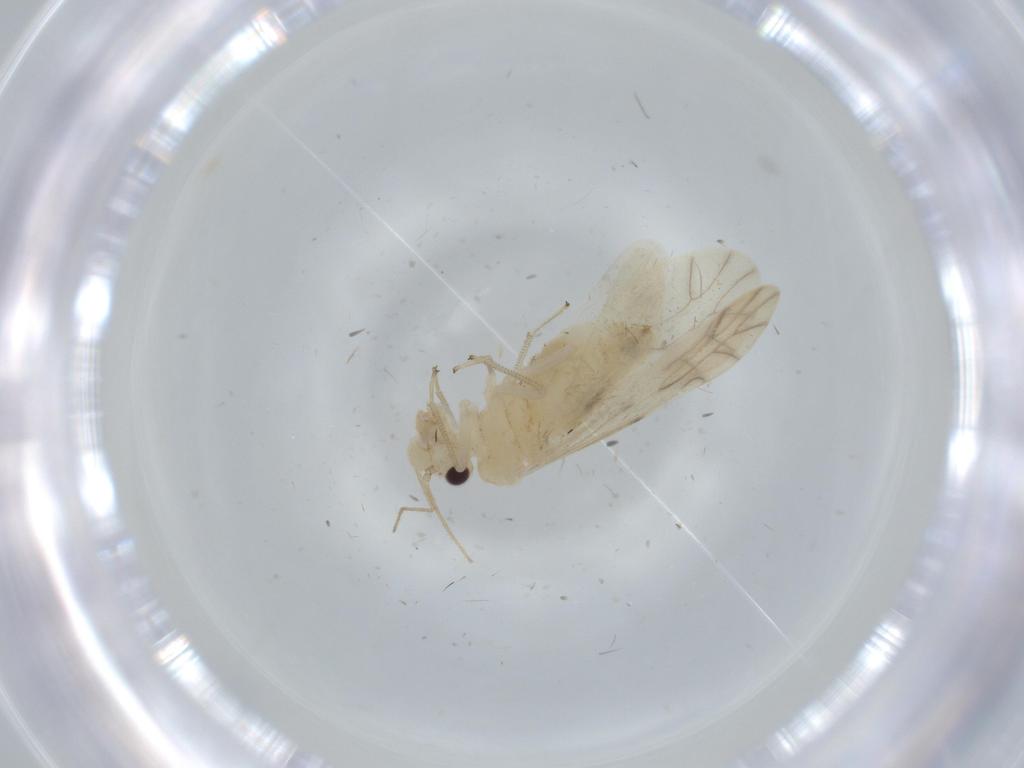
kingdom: Animalia
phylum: Arthropoda
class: Insecta
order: Psocodea
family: Caeciliusidae
